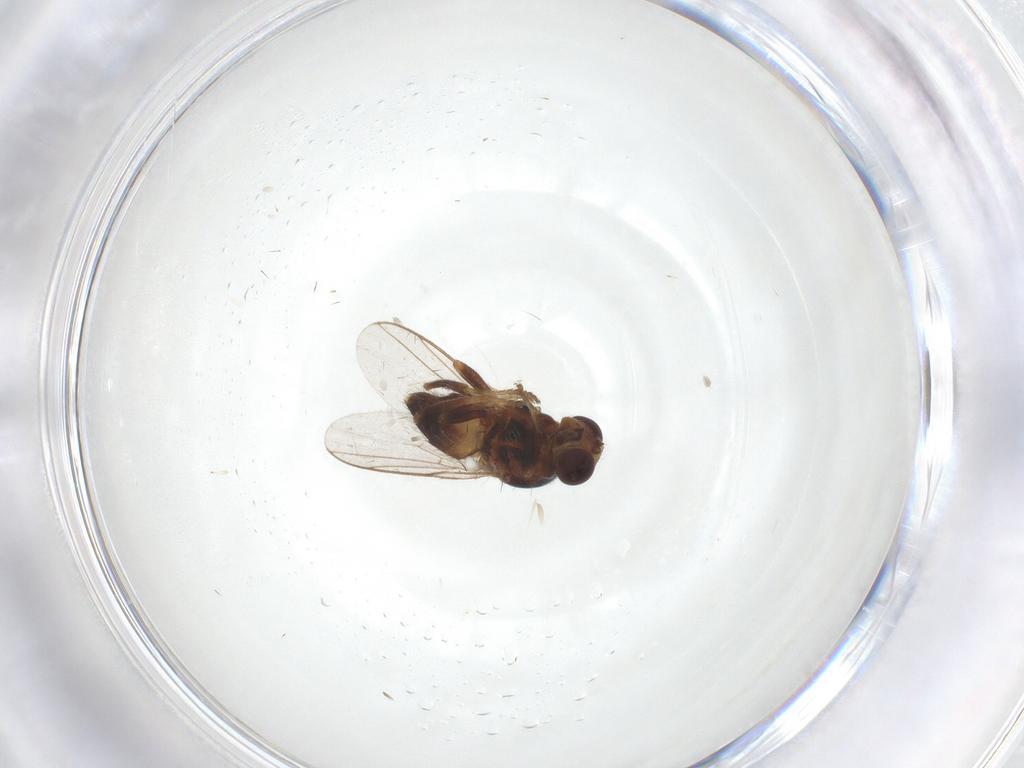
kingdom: Animalia
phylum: Arthropoda
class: Insecta
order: Diptera
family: Chloropidae
